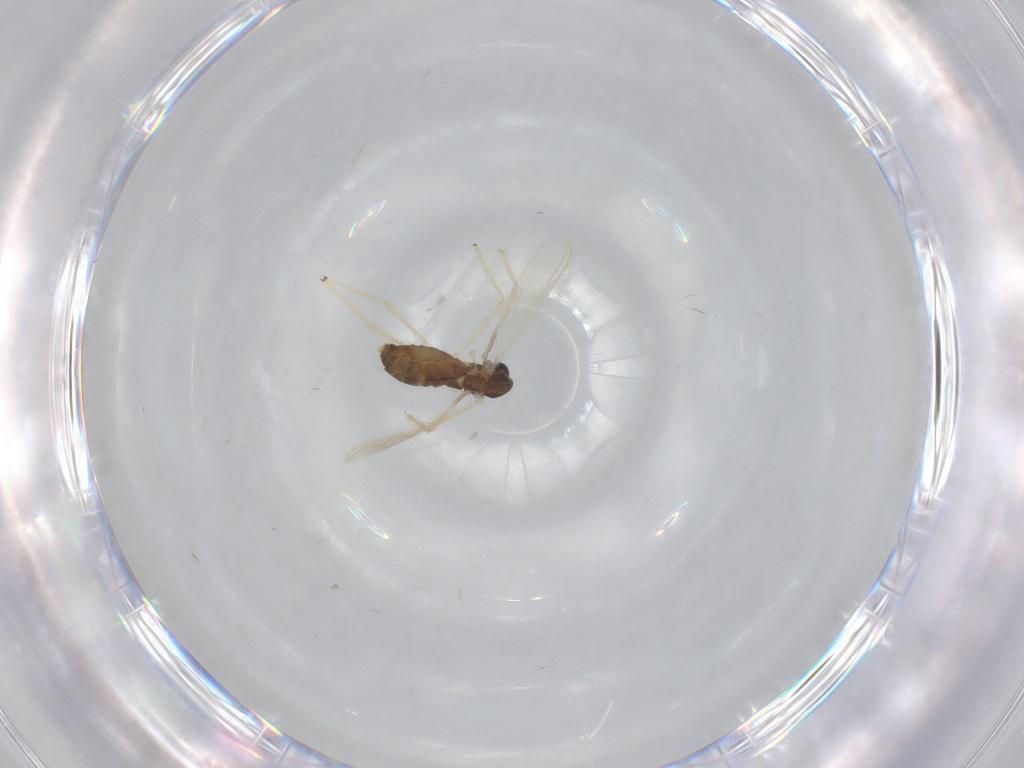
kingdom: Animalia
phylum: Arthropoda
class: Insecta
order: Diptera
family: Chironomidae
